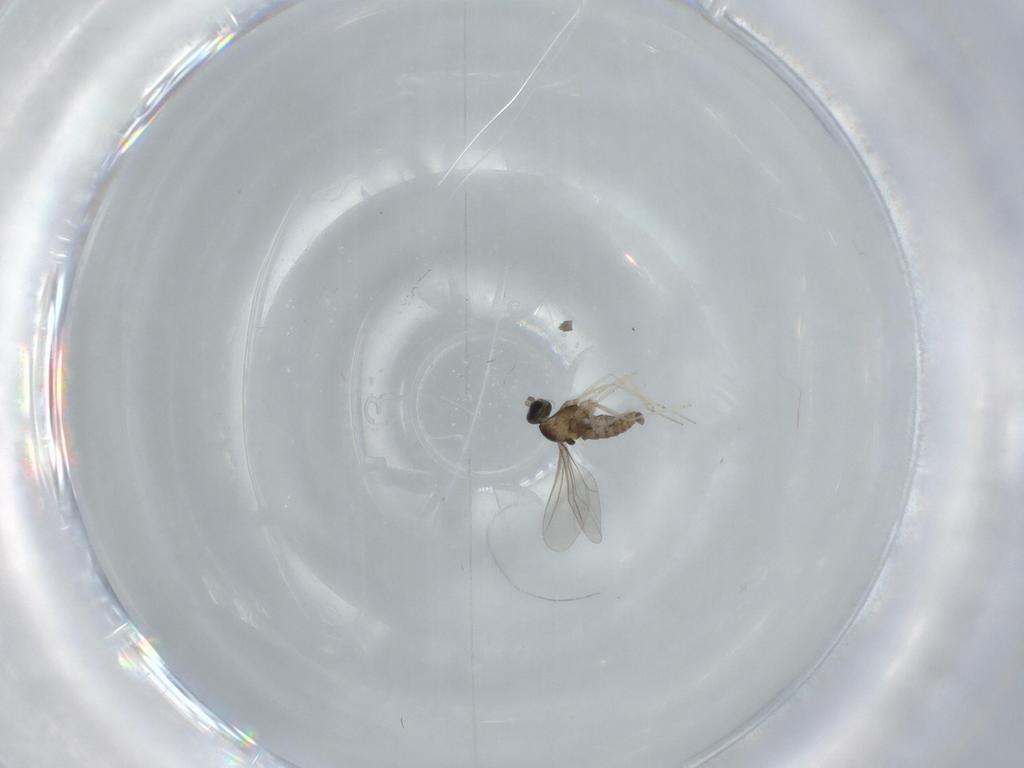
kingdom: Animalia
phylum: Arthropoda
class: Insecta
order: Diptera
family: Cecidomyiidae
